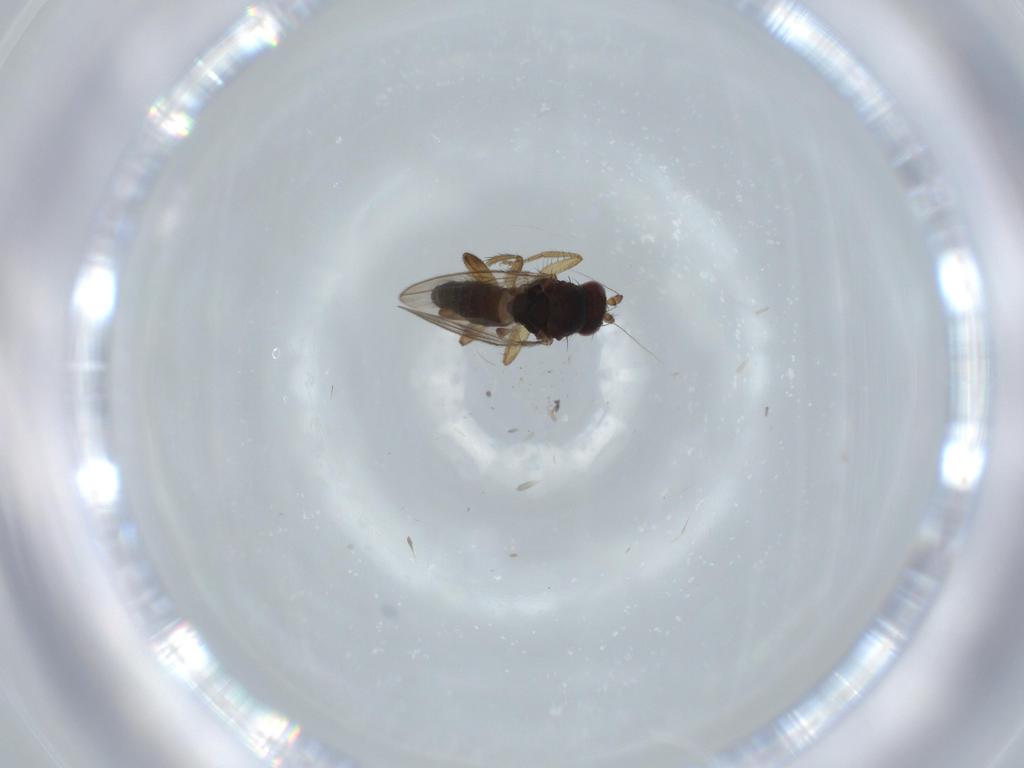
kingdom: Animalia
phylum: Arthropoda
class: Insecta
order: Diptera
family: Sphaeroceridae
